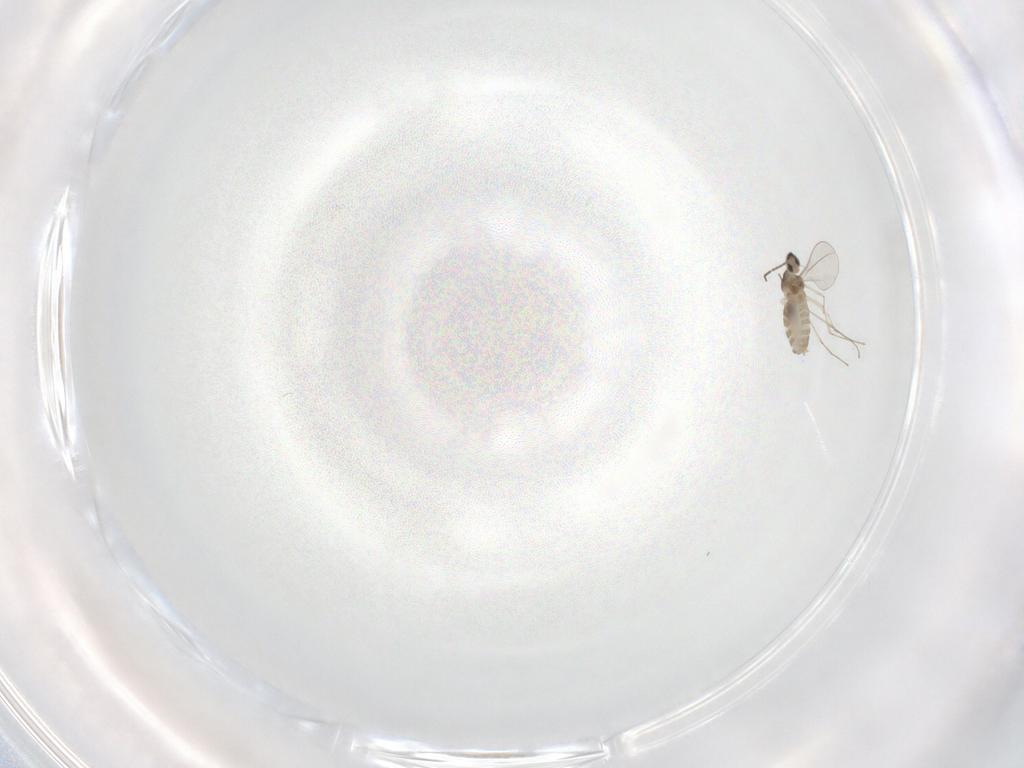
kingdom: Animalia
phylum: Arthropoda
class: Insecta
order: Diptera
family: Cecidomyiidae
